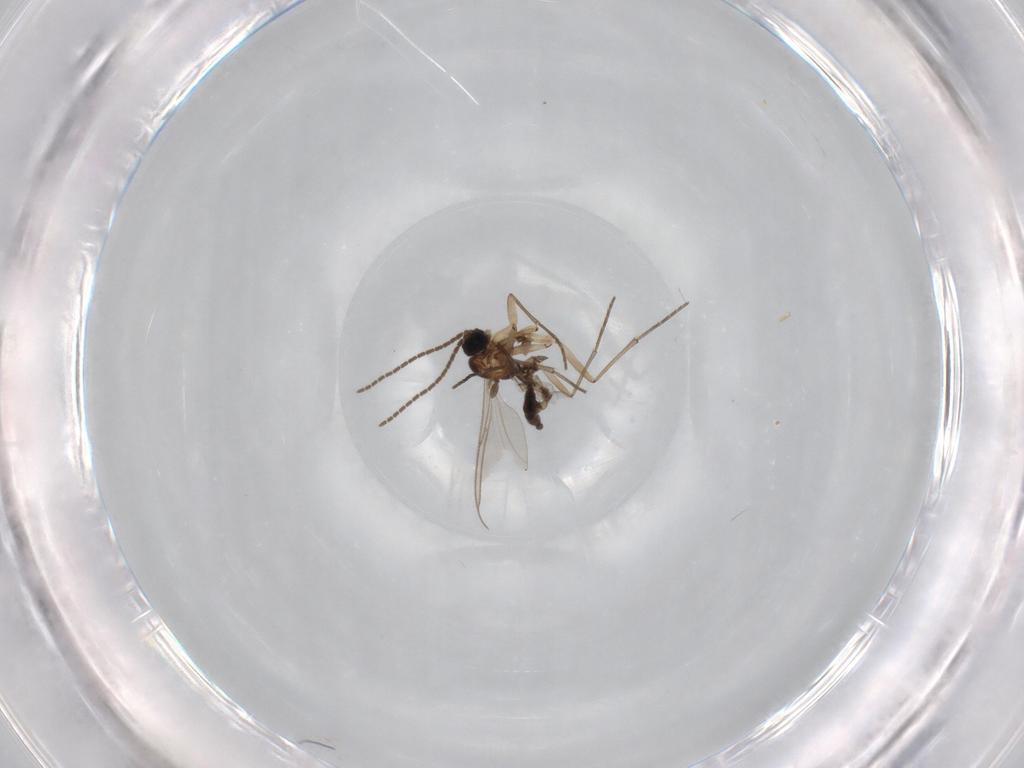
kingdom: Animalia
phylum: Arthropoda
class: Insecta
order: Diptera
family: Sciaridae
